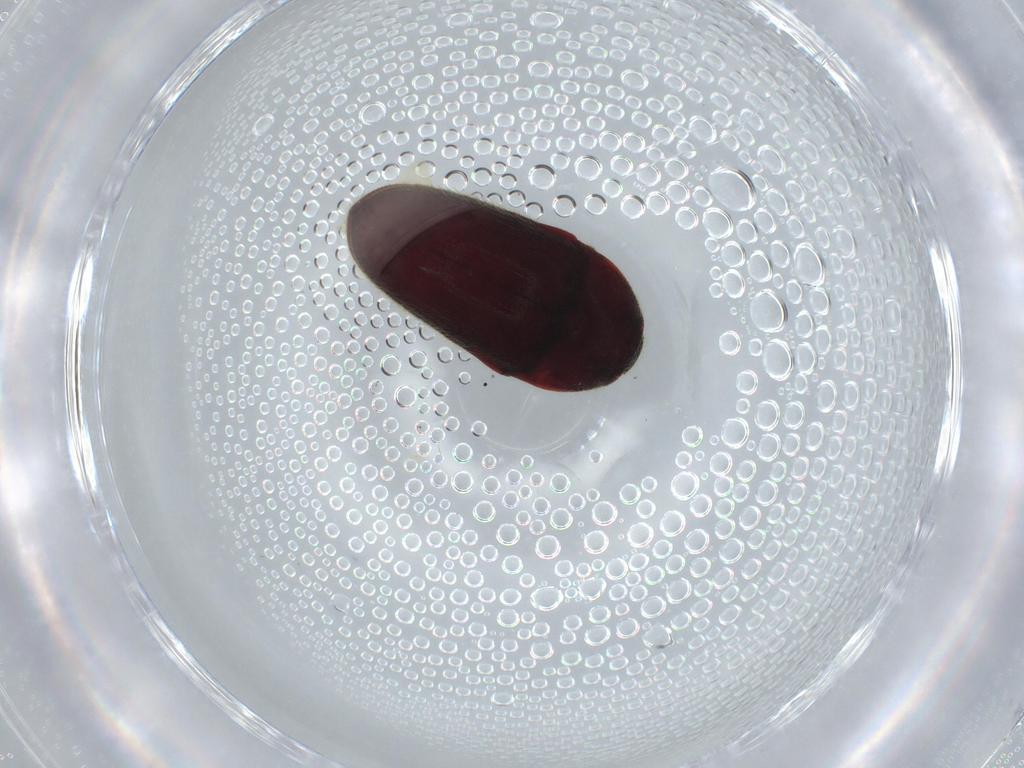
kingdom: Animalia
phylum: Arthropoda
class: Insecta
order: Coleoptera
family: Throscidae
